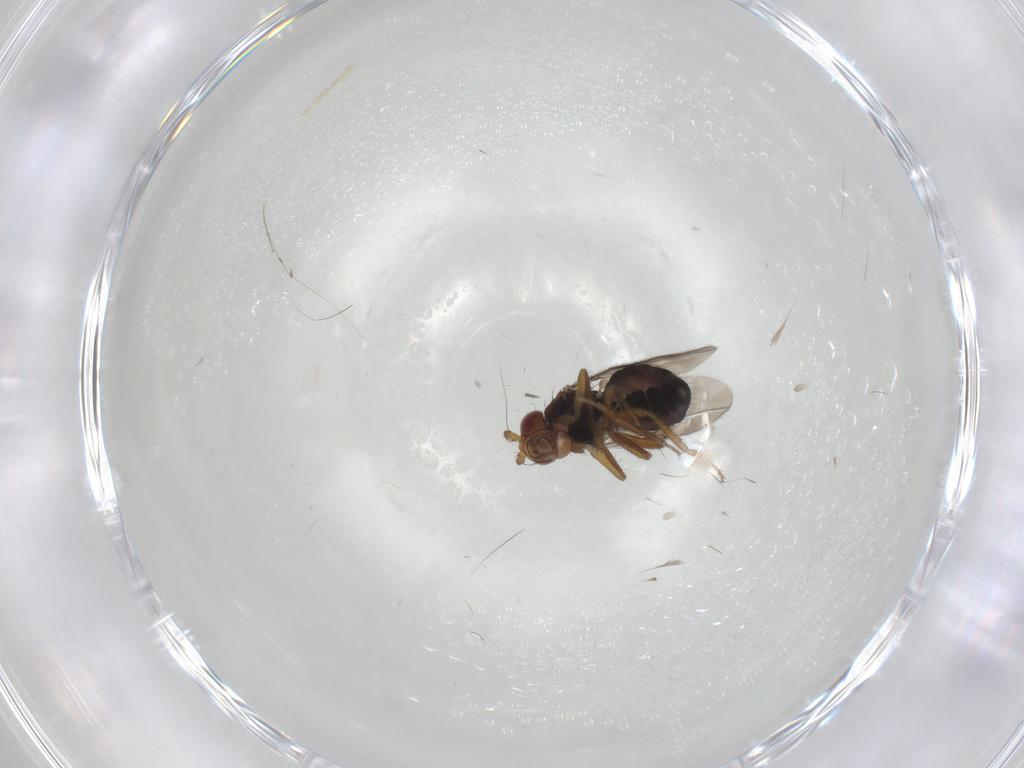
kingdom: Animalia
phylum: Arthropoda
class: Insecta
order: Diptera
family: Sphaeroceridae
